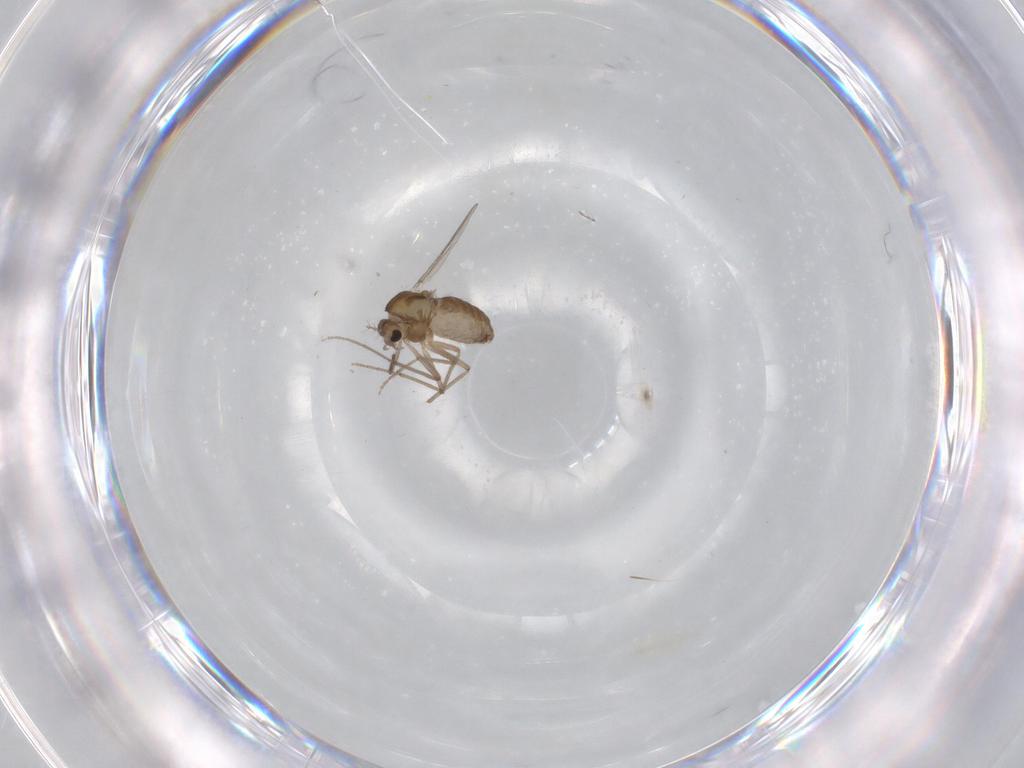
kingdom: Animalia
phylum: Arthropoda
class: Insecta
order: Diptera
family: Chironomidae
